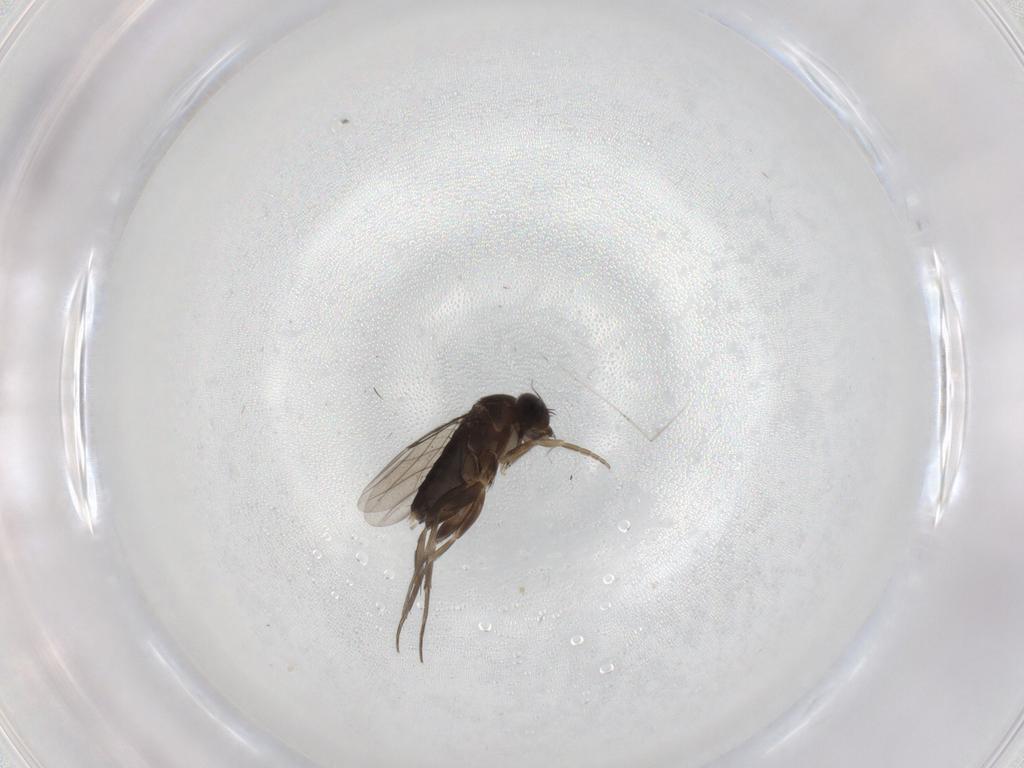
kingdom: Animalia
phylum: Arthropoda
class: Insecta
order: Diptera
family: Phoridae
